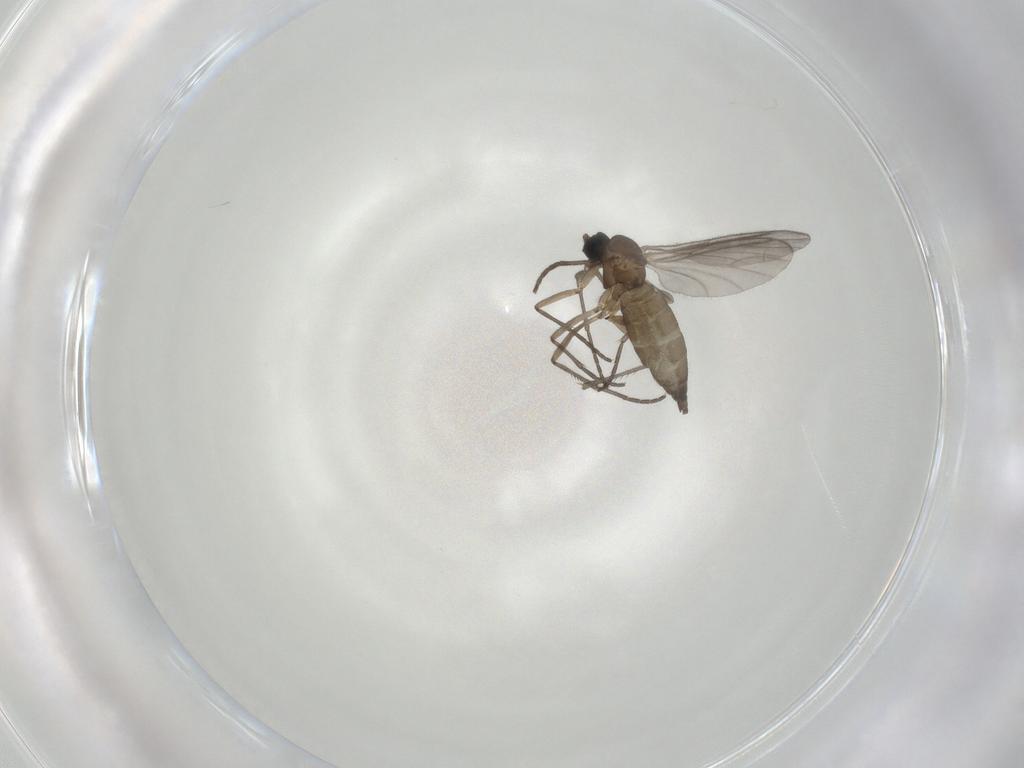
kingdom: Animalia
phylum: Arthropoda
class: Insecta
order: Diptera
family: Sciaridae
